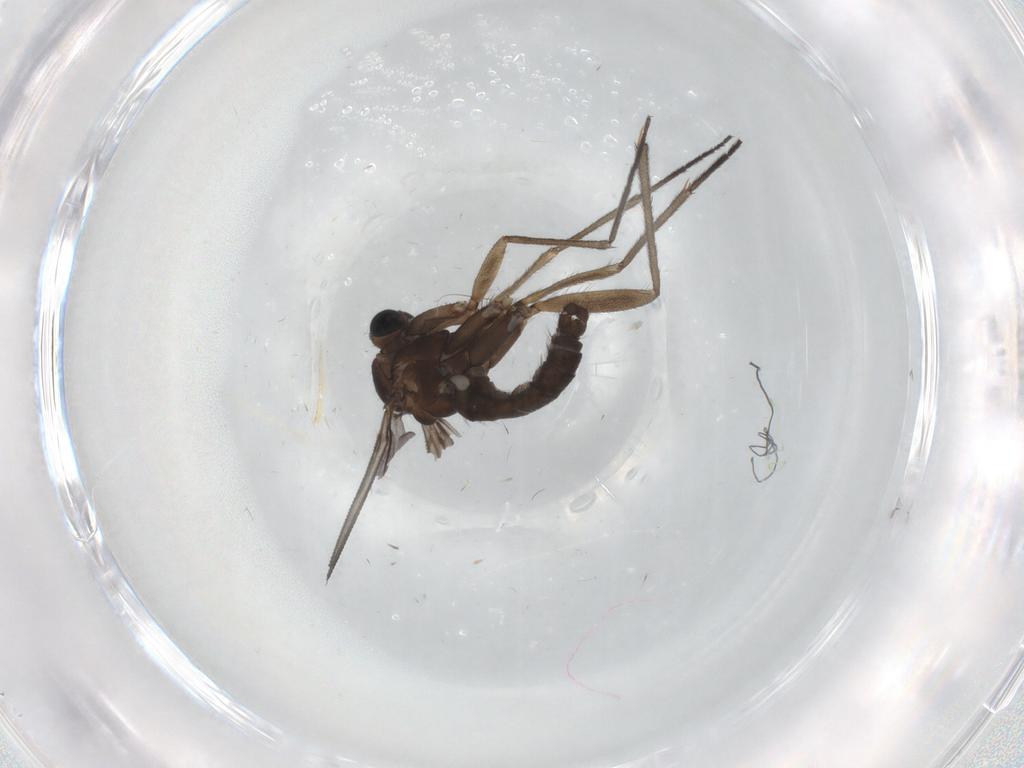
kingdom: Animalia
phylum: Arthropoda
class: Insecta
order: Diptera
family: Sciaridae
